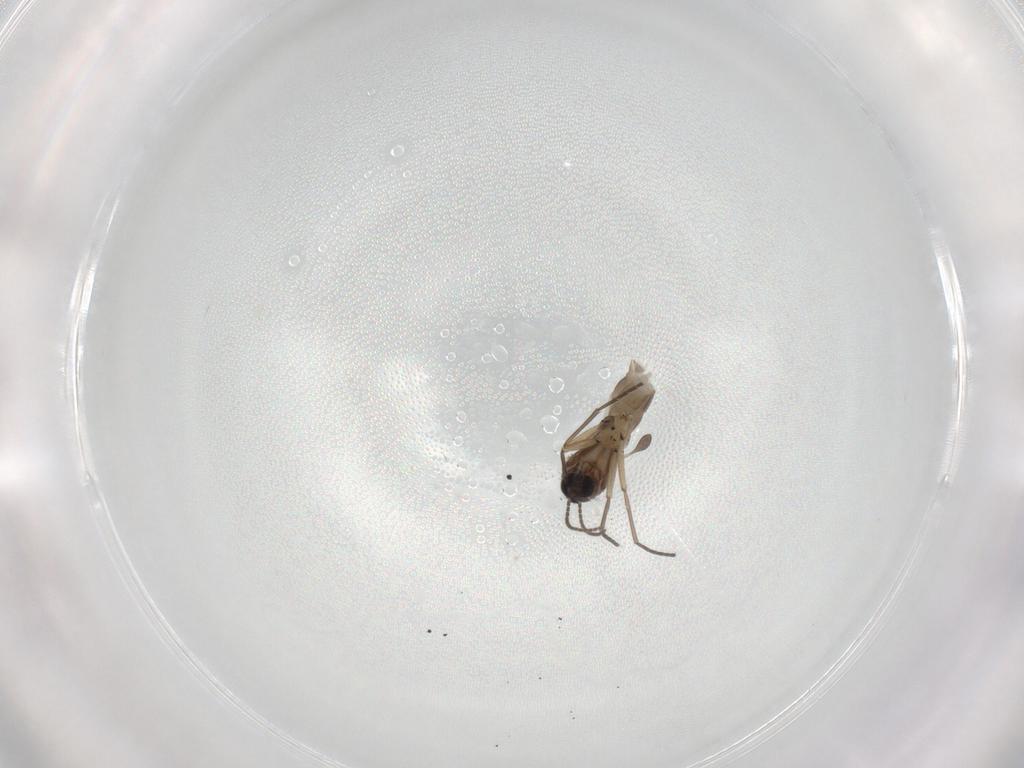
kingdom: Animalia
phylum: Arthropoda
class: Insecta
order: Diptera
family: Sciaridae
